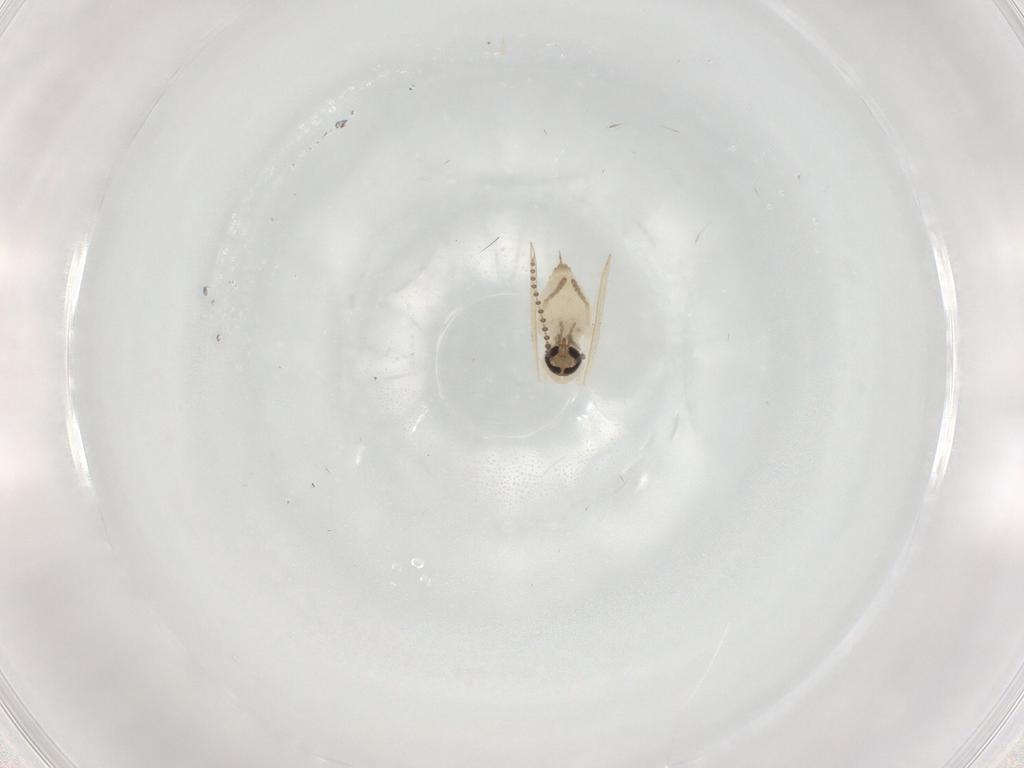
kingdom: Animalia
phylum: Arthropoda
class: Insecta
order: Diptera
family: Psychodidae
